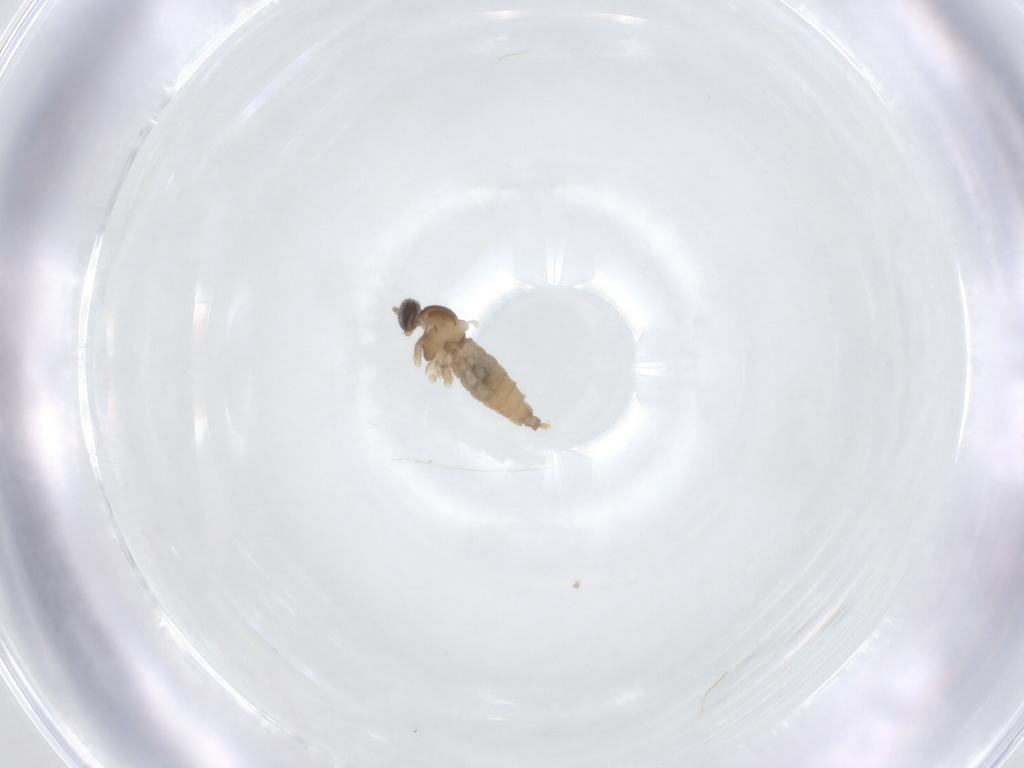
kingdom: Animalia
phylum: Arthropoda
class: Insecta
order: Diptera
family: Cecidomyiidae
